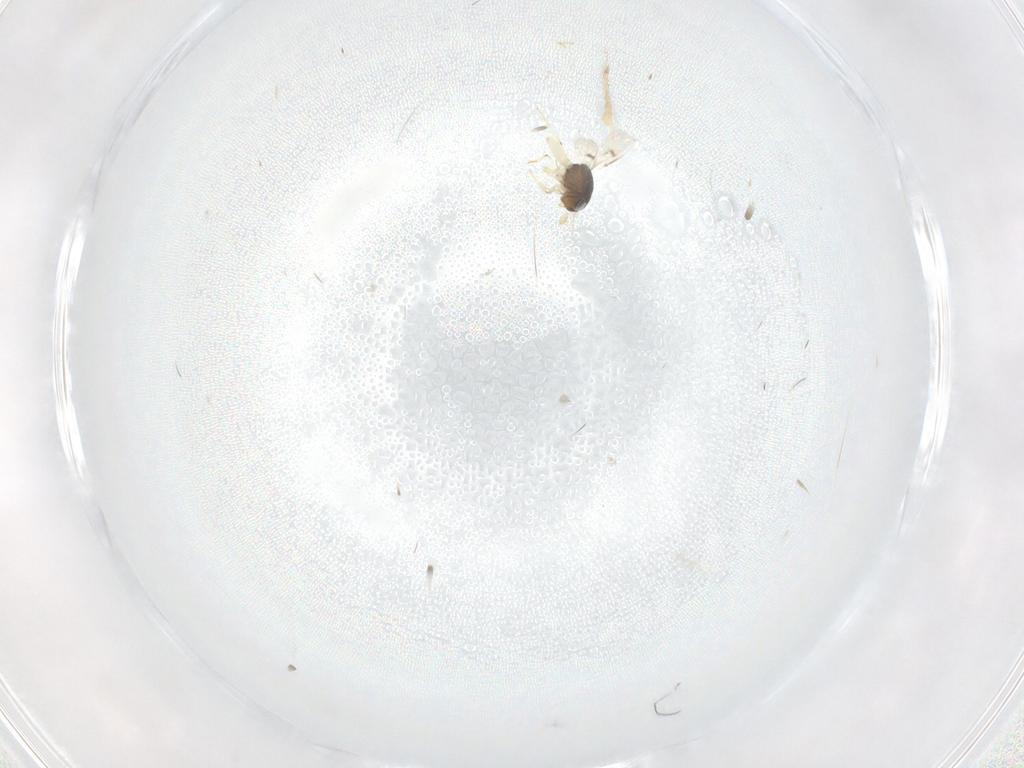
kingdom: Animalia
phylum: Arthropoda
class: Insecta
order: Hymenoptera
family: Scelionidae
